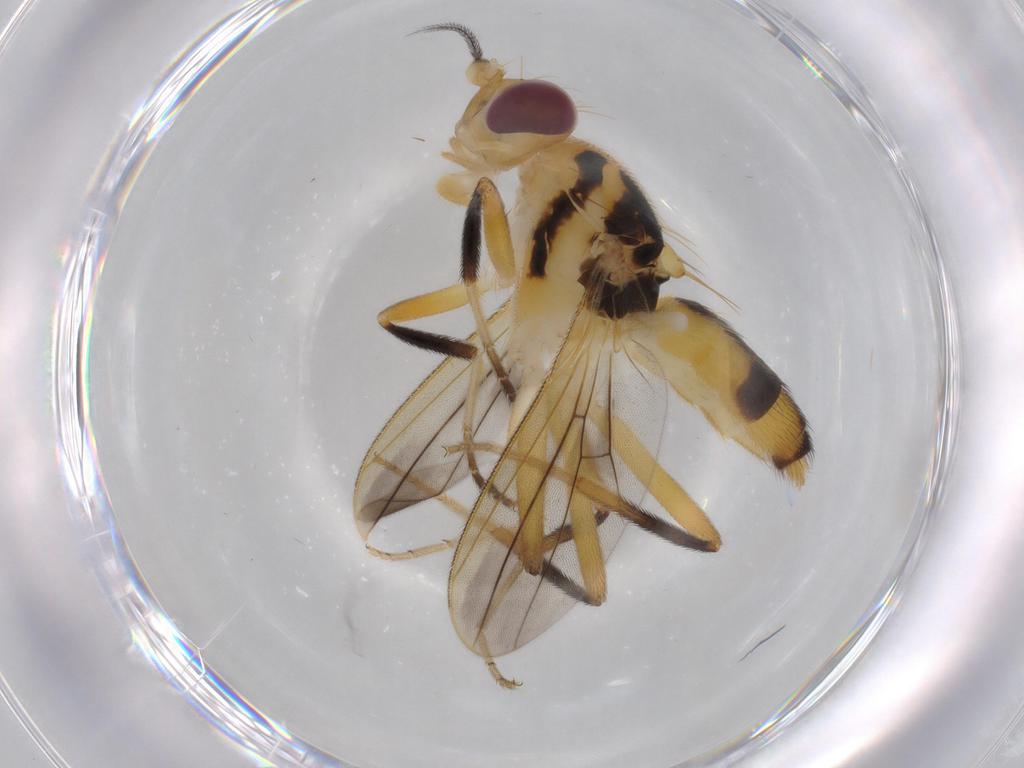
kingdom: Animalia
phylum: Arthropoda
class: Insecta
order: Diptera
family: Clusiidae
